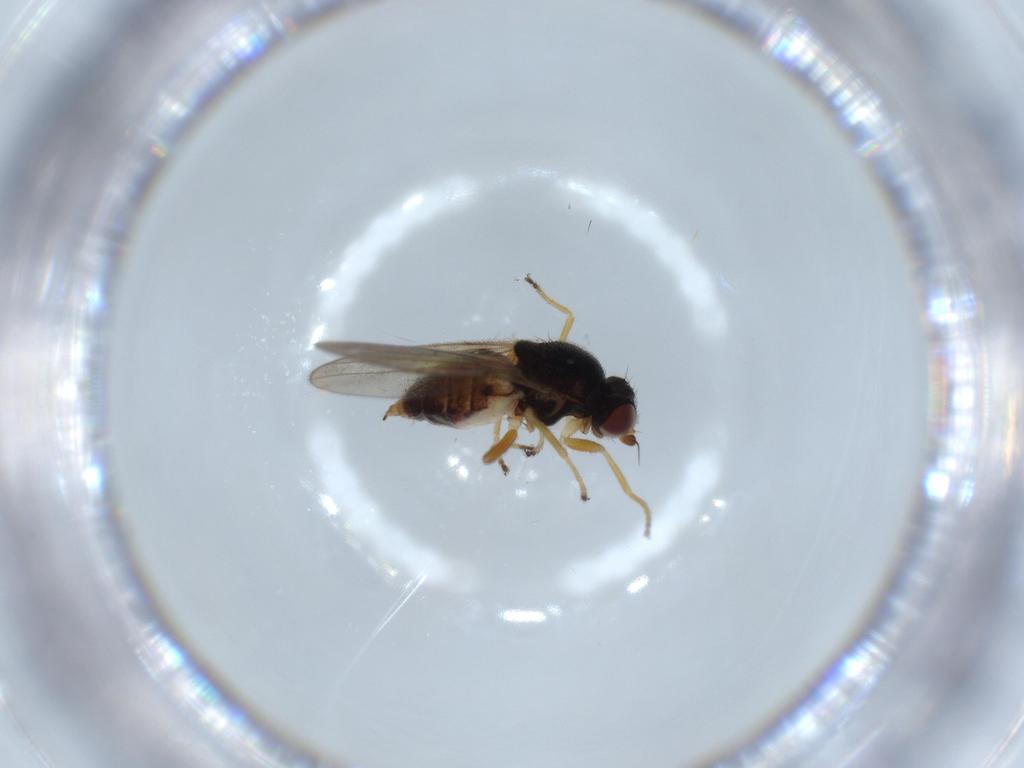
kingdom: Animalia
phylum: Arthropoda
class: Insecta
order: Diptera
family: Chloropidae
